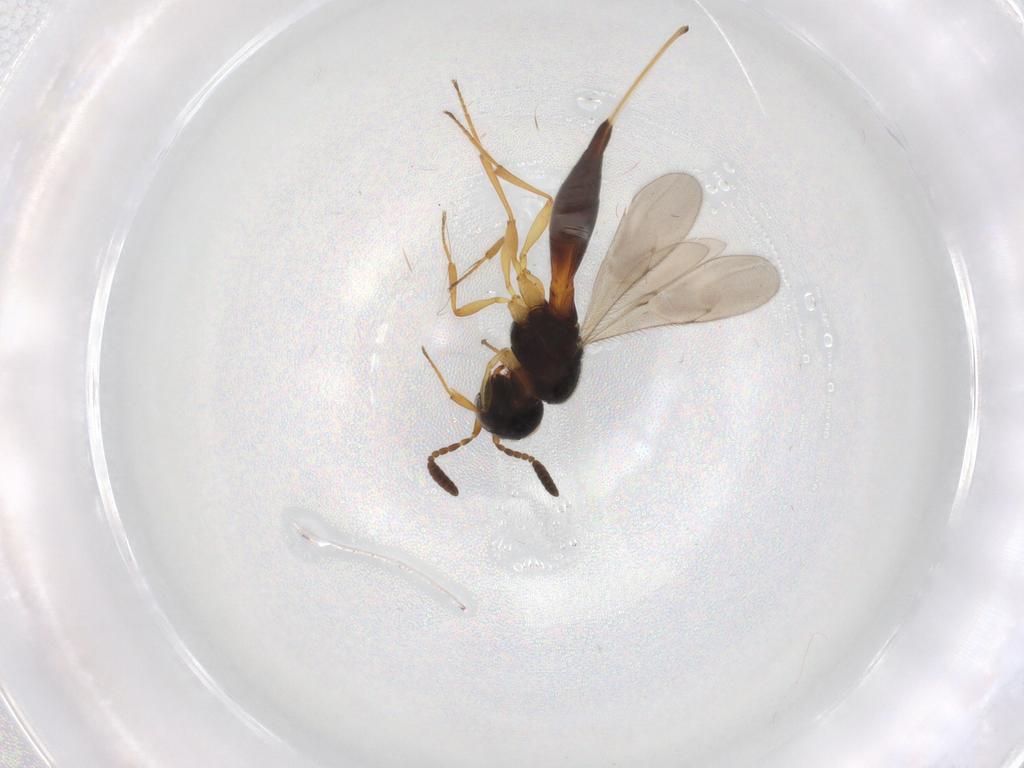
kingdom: Animalia
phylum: Arthropoda
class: Insecta
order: Hymenoptera
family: Scelionidae
